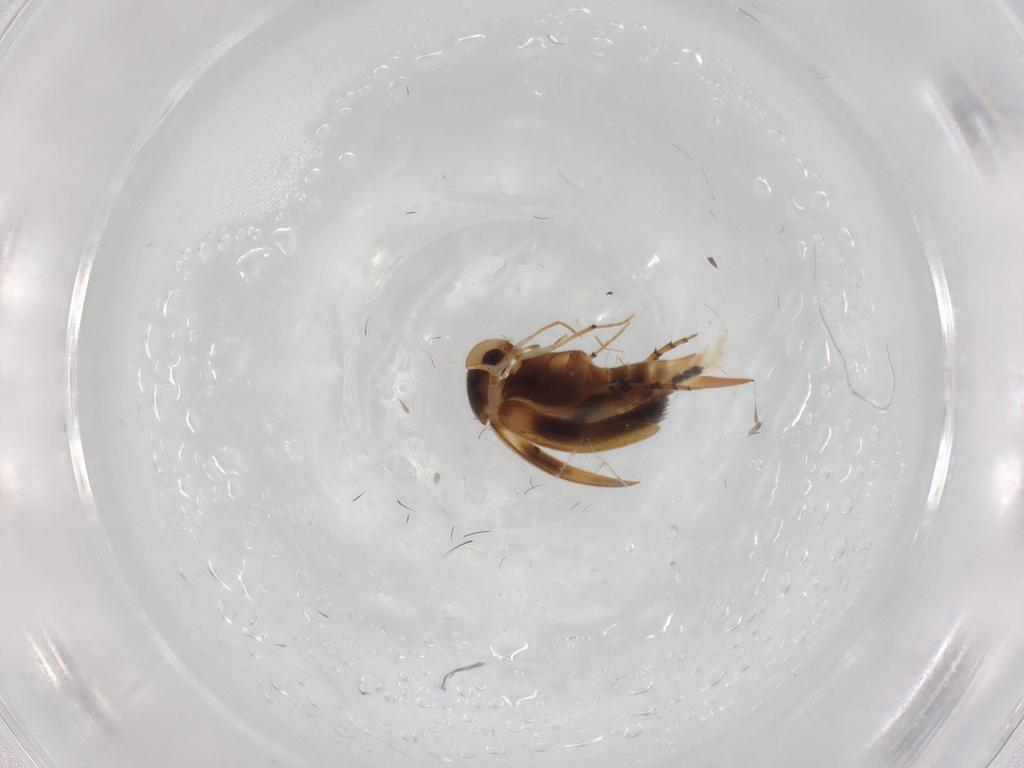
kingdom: Animalia
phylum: Arthropoda
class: Insecta
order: Coleoptera
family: Mordellidae
